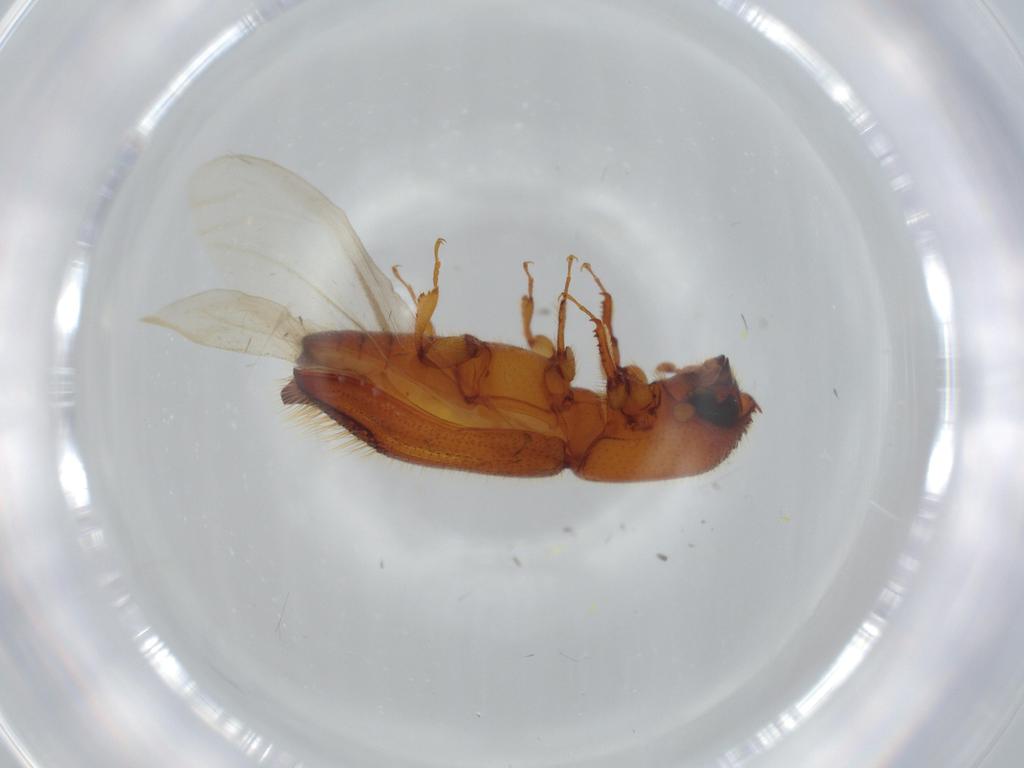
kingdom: Animalia
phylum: Arthropoda
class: Insecta
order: Coleoptera
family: Curculionidae
